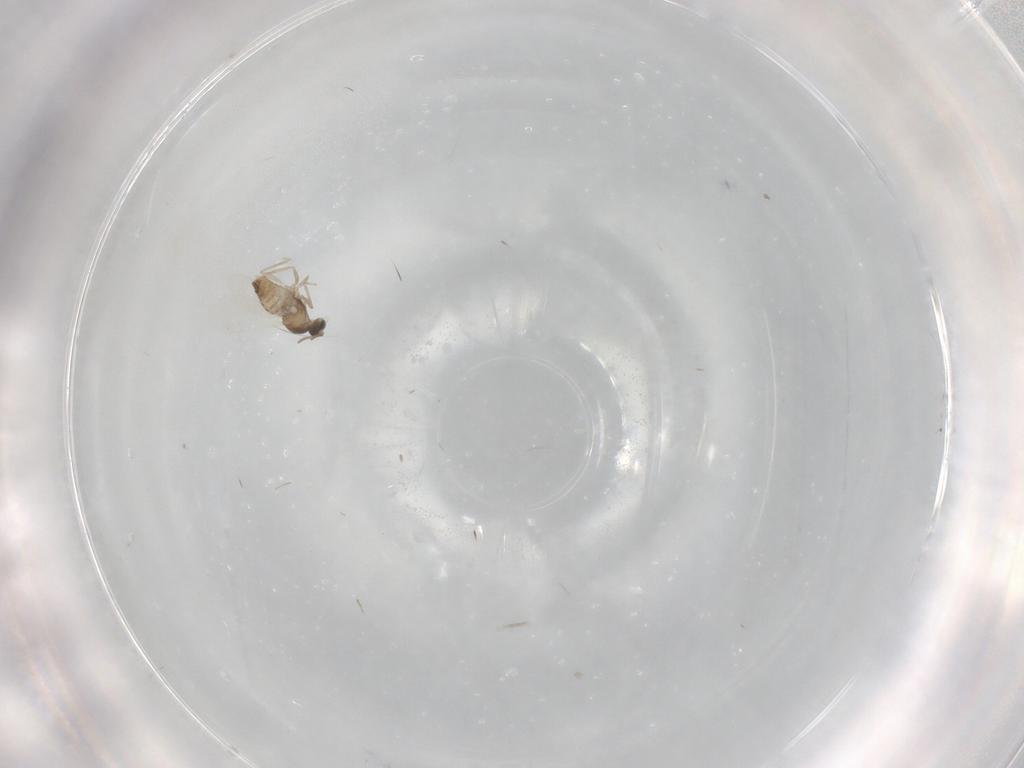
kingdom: Animalia
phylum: Arthropoda
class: Insecta
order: Diptera
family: Cecidomyiidae
